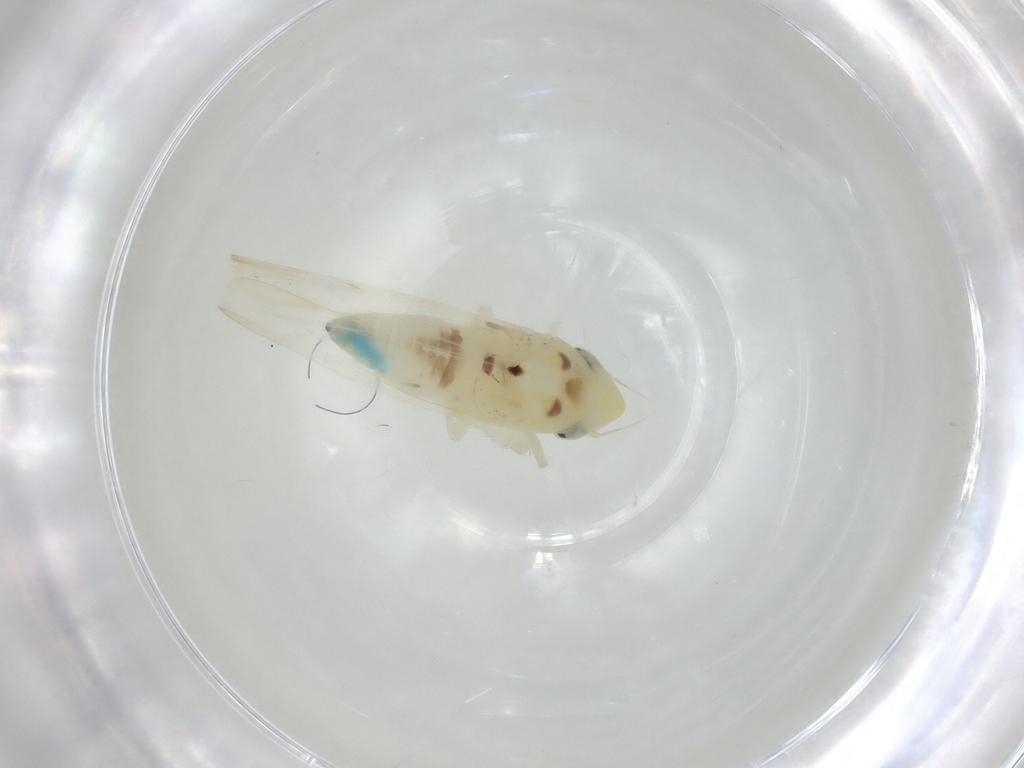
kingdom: Animalia
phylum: Arthropoda
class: Insecta
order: Hemiptera
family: Cicadellidae
